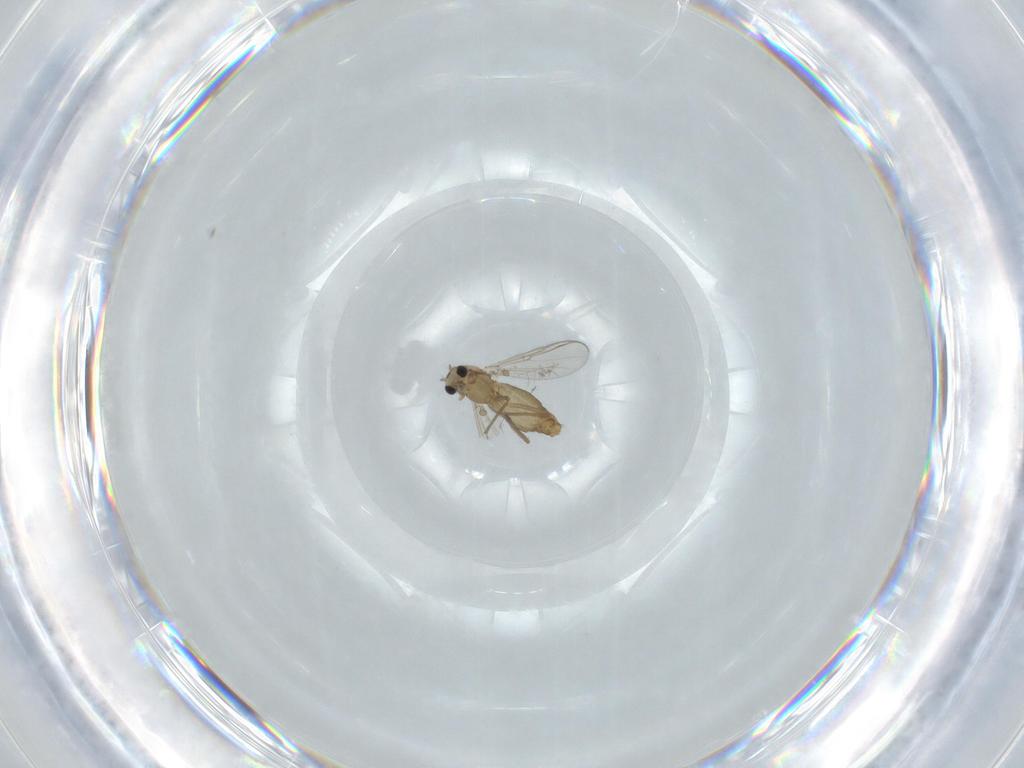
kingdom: Animalia
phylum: Arthropoda
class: Insecta
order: Diptera
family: Chironomidae
